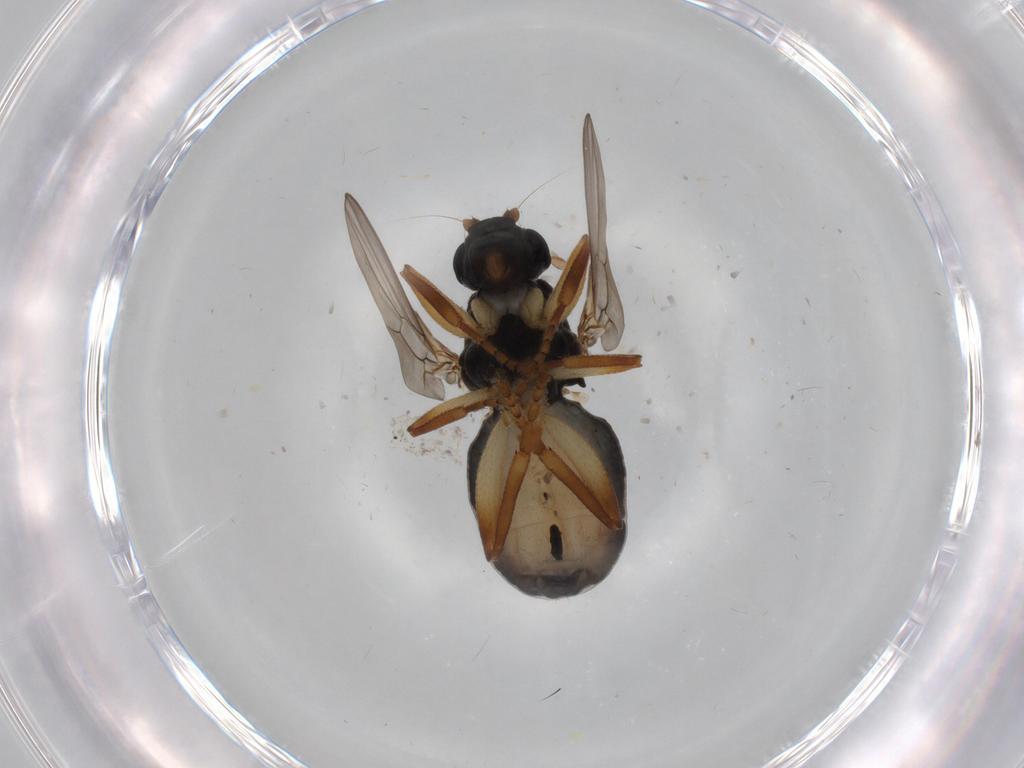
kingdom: Animalia
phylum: Arthropoda
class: Insecta
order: Diptera
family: Sphaeroceridae
